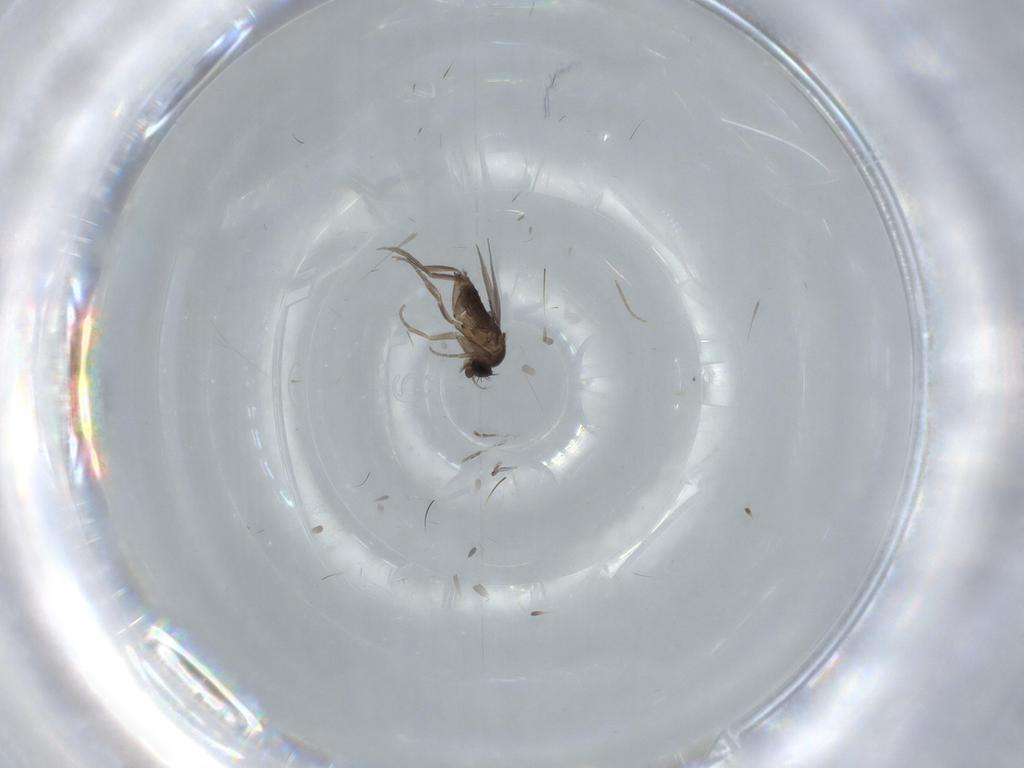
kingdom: Animalia
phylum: Arthropoda
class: Insecta
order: Diptera
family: Phoridae
